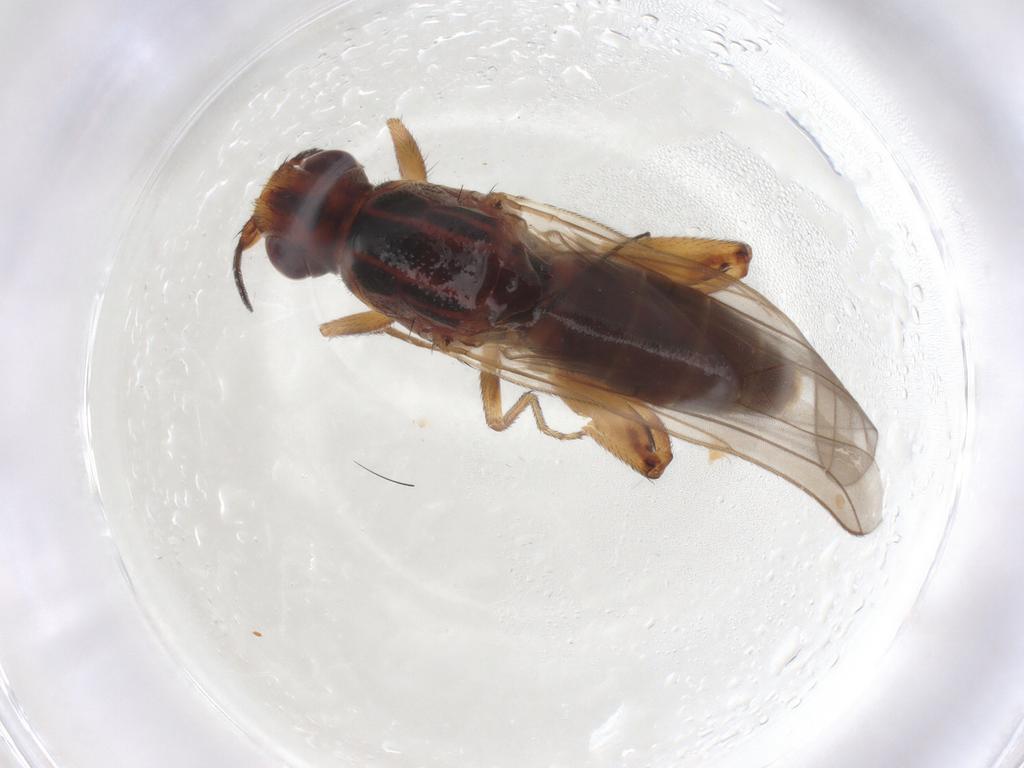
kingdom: Animalia
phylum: Arthropoda
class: Insecta
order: Diptera
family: Chloropidae
